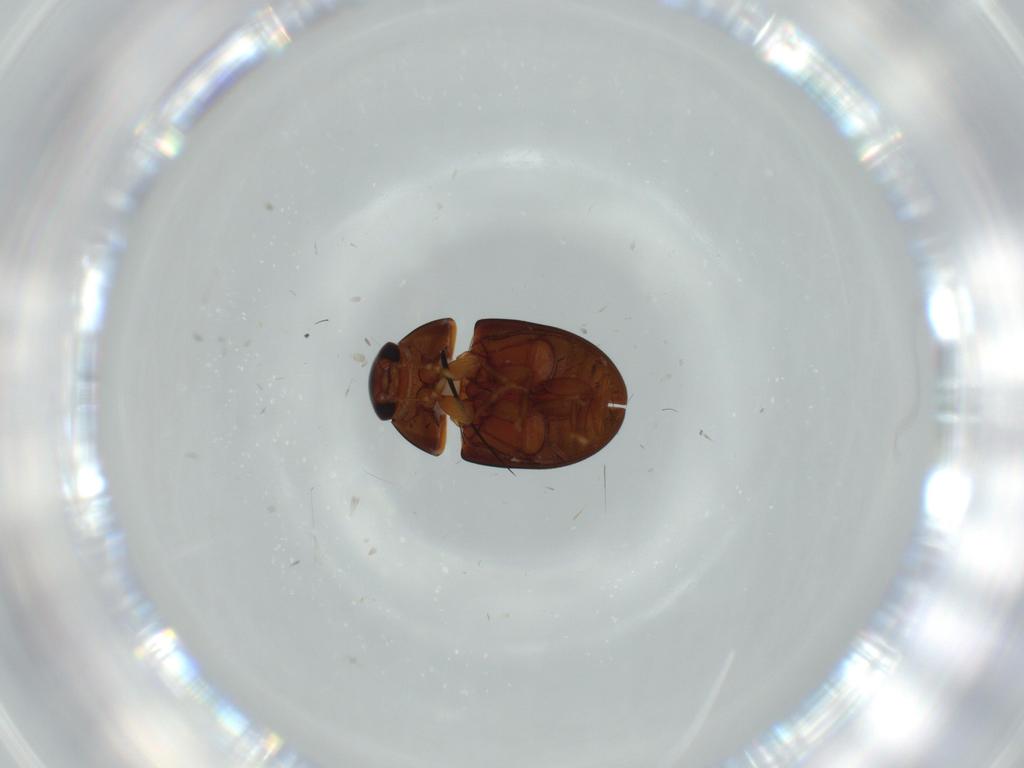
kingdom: Animalia
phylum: Arthropoda
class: Insecta
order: Coleoptera
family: Phalacridae
